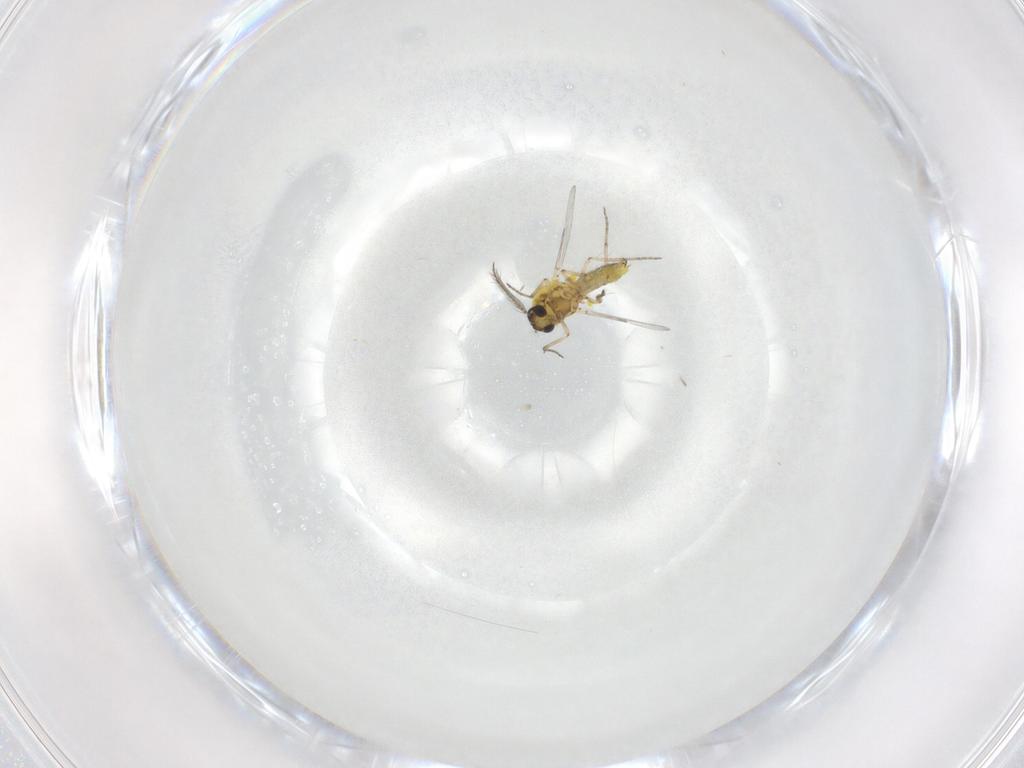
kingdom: Animalia
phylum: Arthropoda
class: Insecta
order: Diptera
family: Ceratopogonidae
